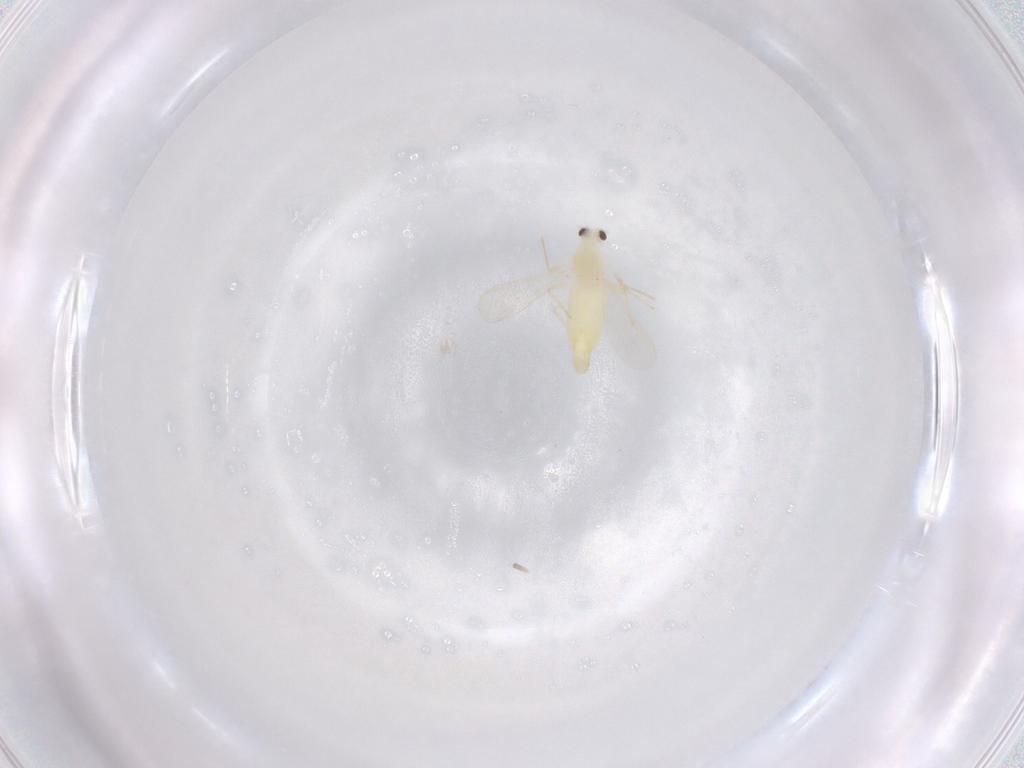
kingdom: Animalia
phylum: Arthropoda
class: Insecta
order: Diptera
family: Chironomidae
